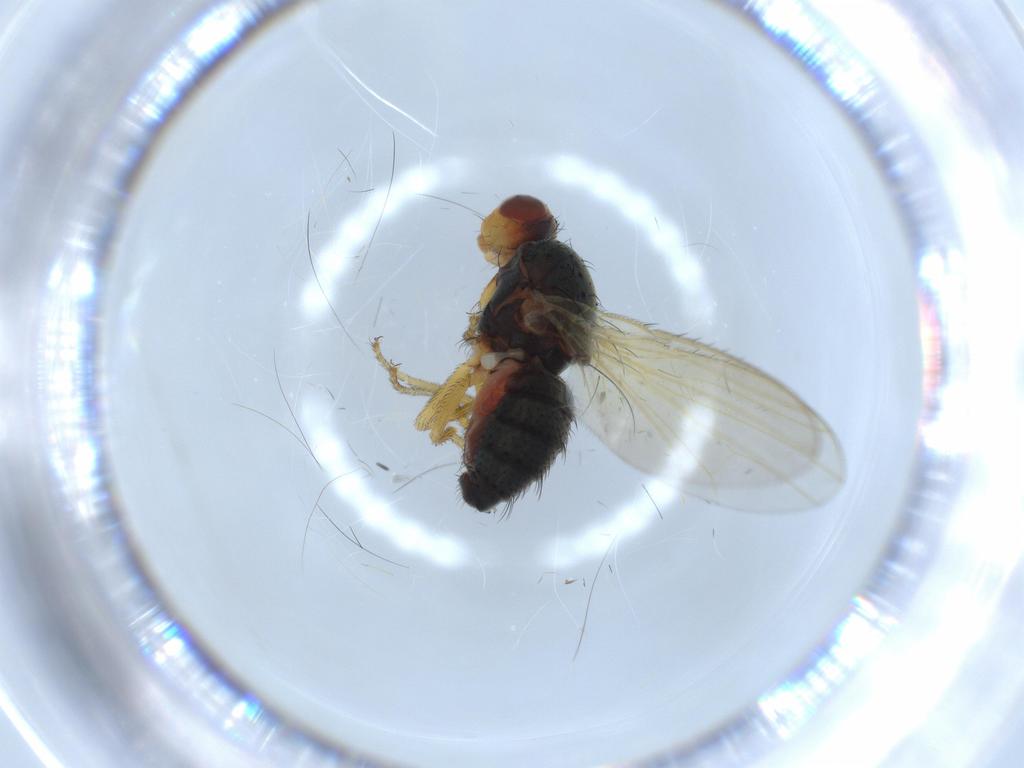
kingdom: Animalia
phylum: Arthropoda
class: Insecta
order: Diptera
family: Heleomyzidae
